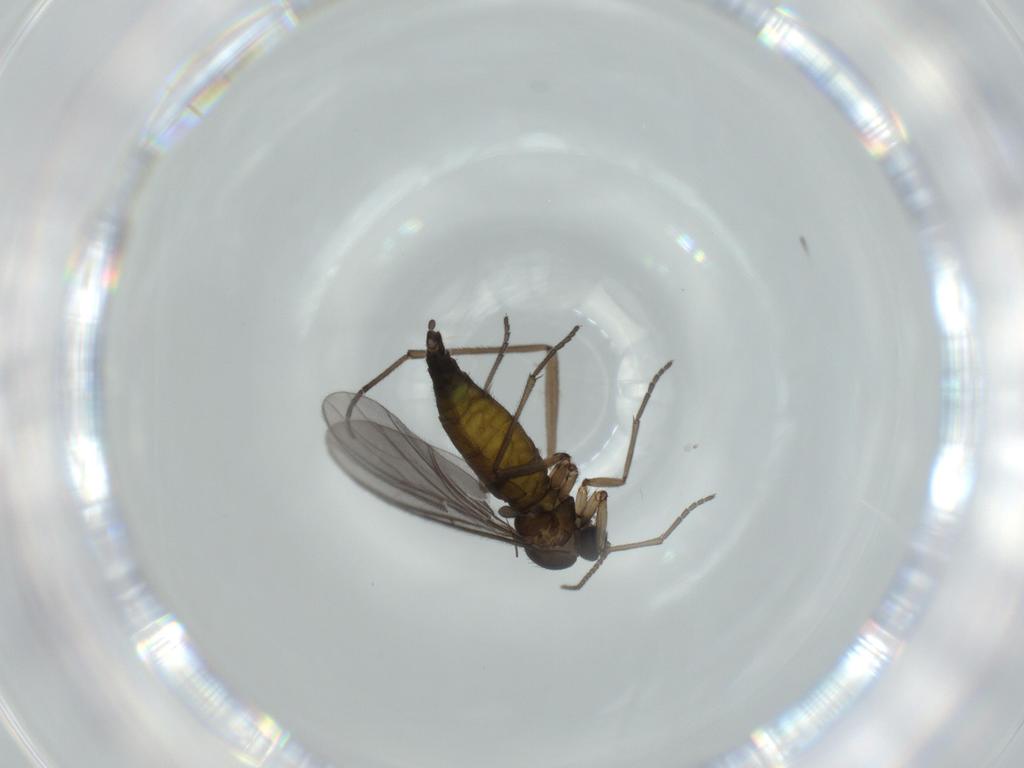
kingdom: Animalia
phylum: Arthropoda
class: Insecta
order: Diptera
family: Sciaridae
